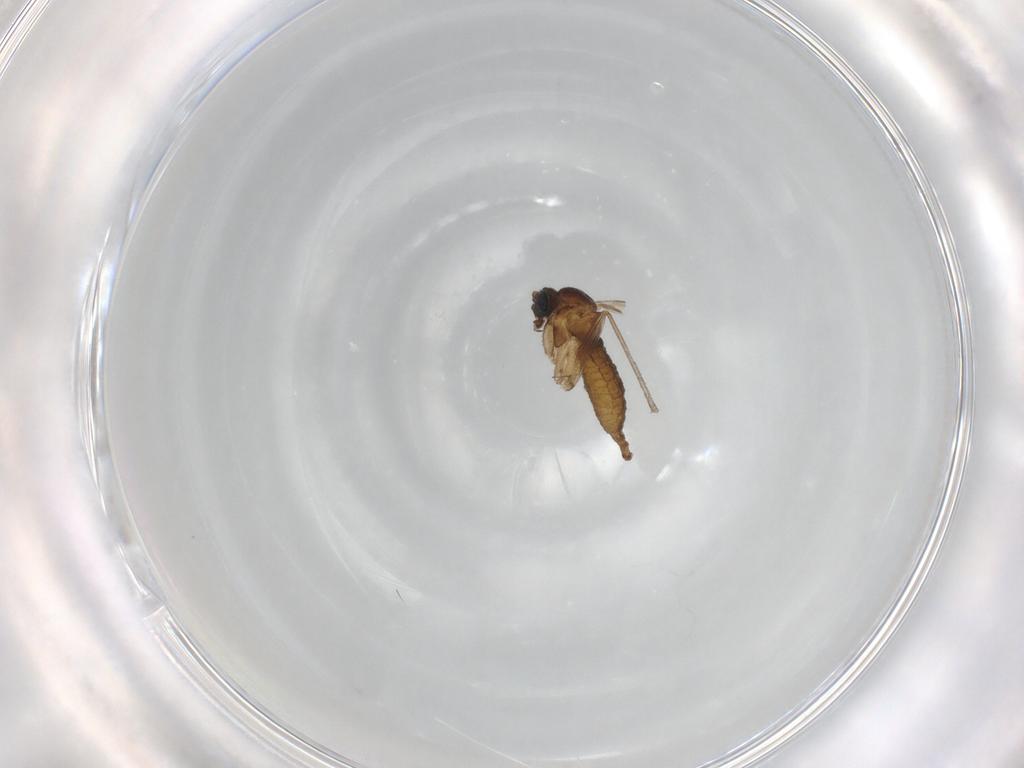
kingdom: Animalia
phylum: Arthropoda
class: Insecta
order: Diptera
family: Sciaridae
